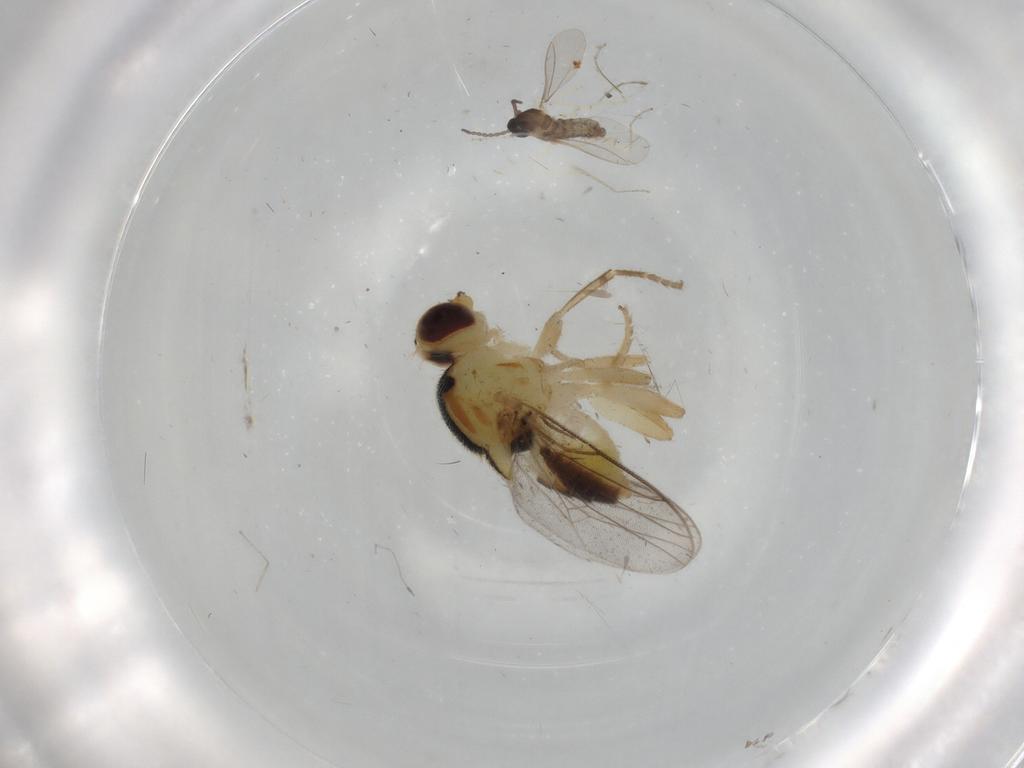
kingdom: Animalia
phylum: Arthropoda
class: Insecta
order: Diptera
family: Chloropidae
